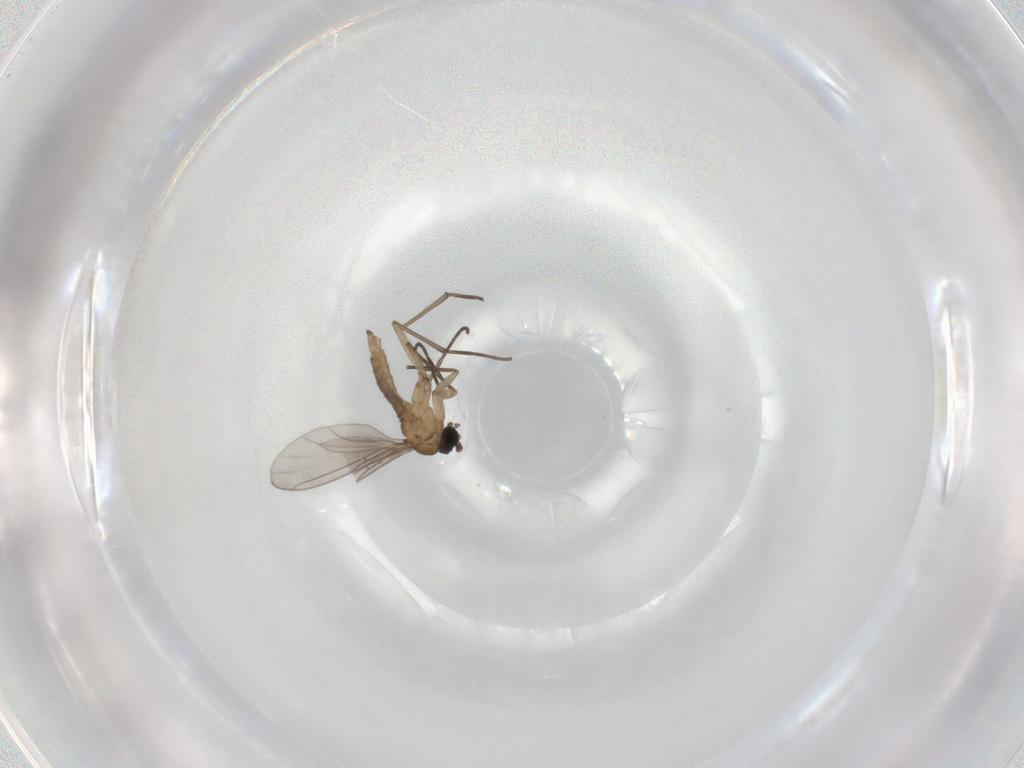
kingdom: Animalia
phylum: Arthropoda
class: Insecta
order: Diptera
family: Sciaridae
